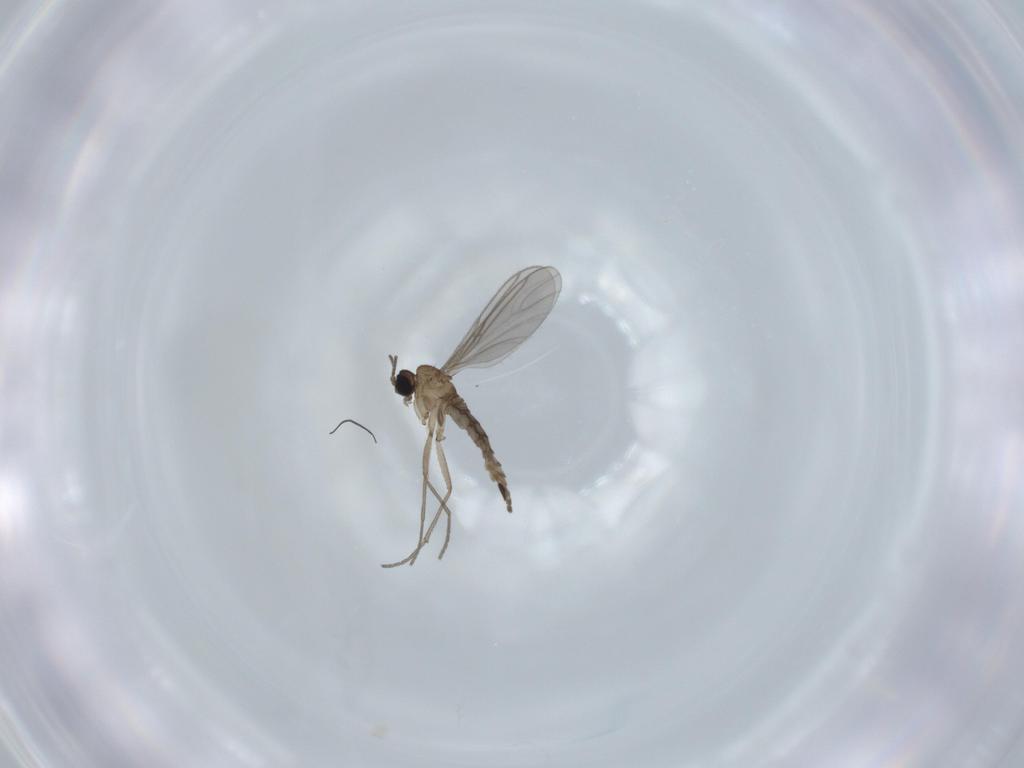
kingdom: Animalia
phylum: Arthropoda
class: Insecta
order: Diptera
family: Sciaridae
